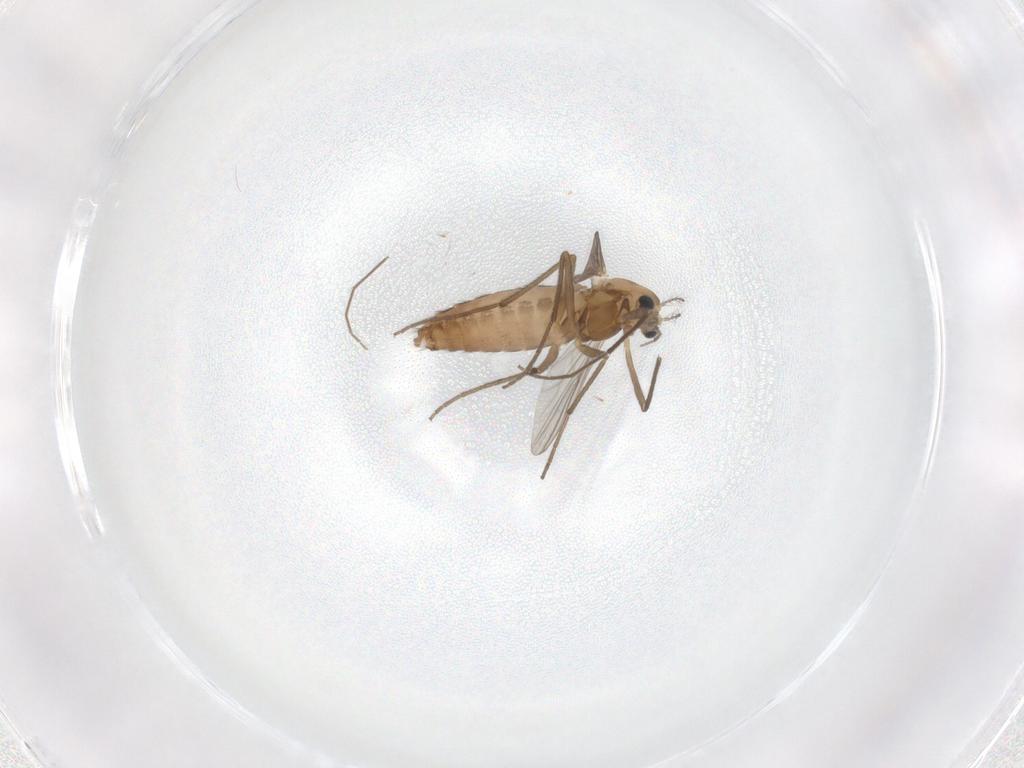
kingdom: Animalia
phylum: Arthropoda
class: Insecta
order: Diptera
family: Chironomidae
